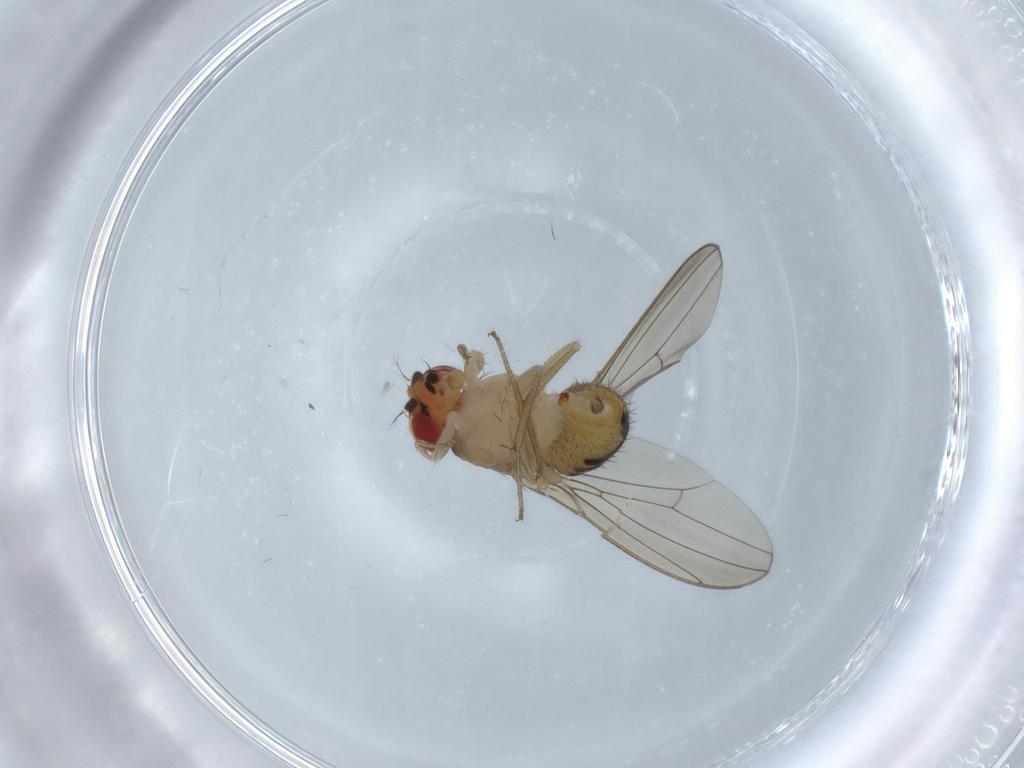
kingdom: Animalia
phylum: Arthropoda
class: Insecta
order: Diptera
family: Drosophilidae
